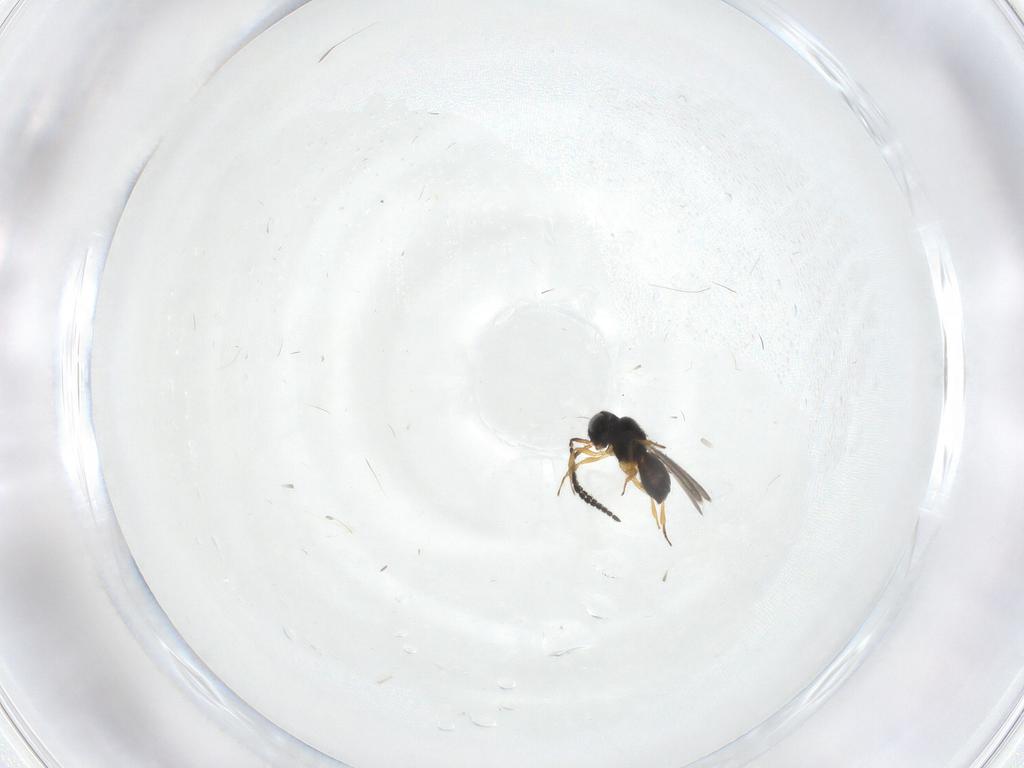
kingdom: Animalia
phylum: Arthropoda
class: Insecta
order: Hymenoptera
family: Scelionidae
